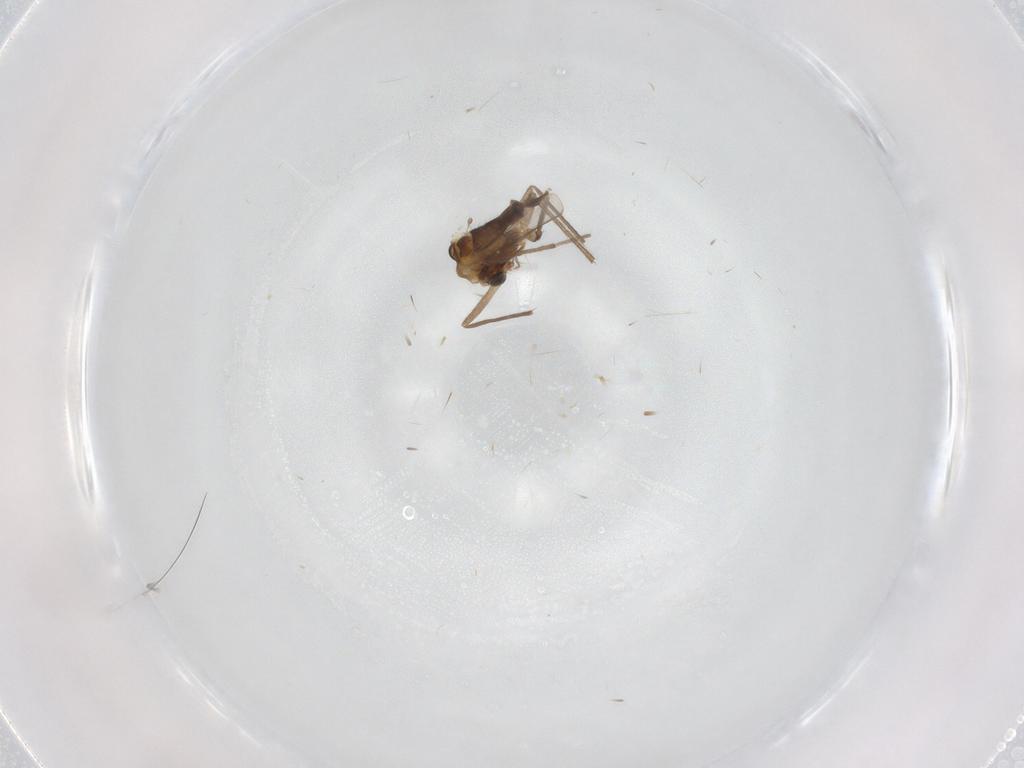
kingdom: Animalia
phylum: Arthropoda
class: Insecta
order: Diptera
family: Chironomidae
